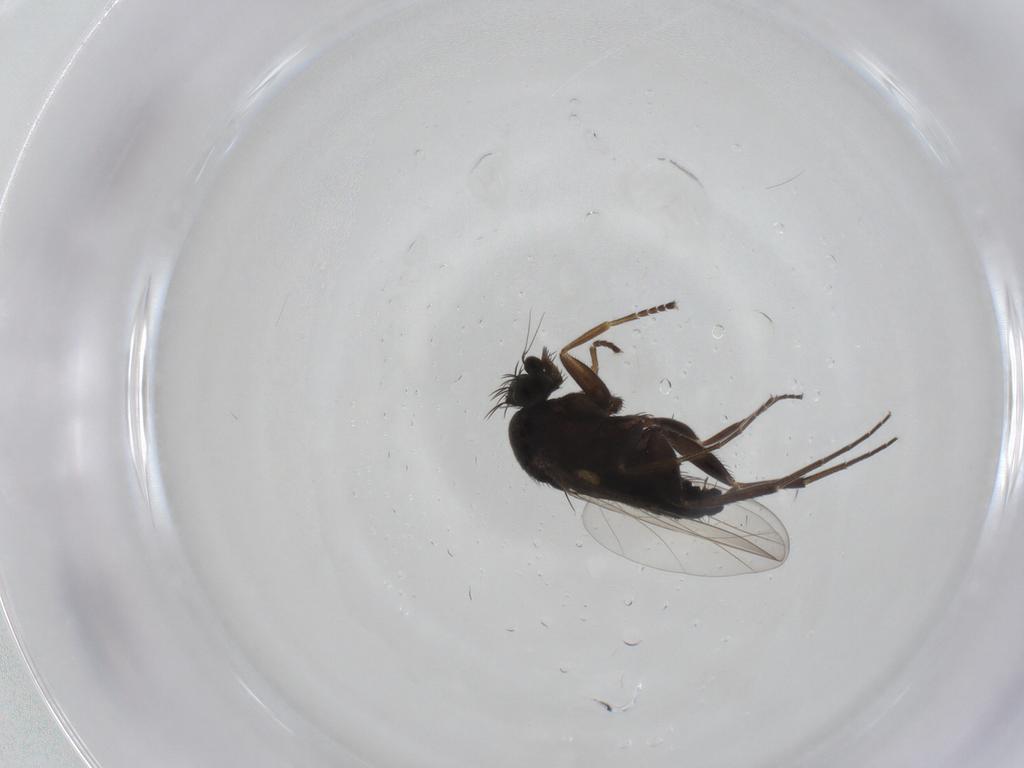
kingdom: Animalia
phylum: Arthropoda
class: Insecta
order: Diptera
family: Phoridae
